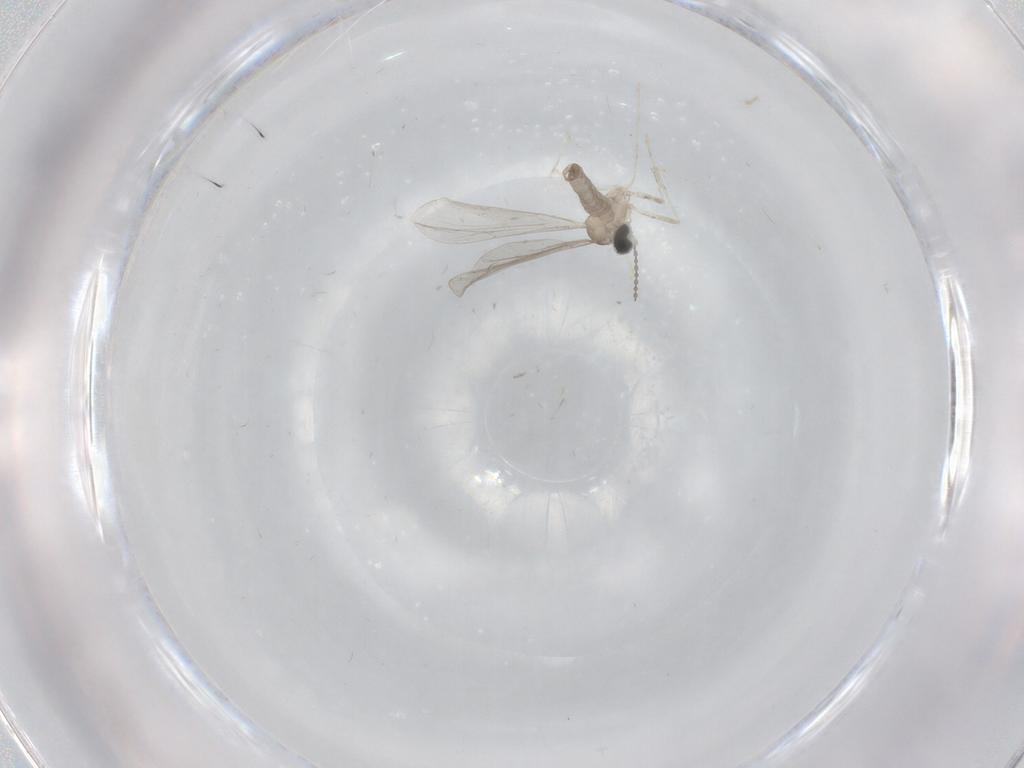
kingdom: Animalia
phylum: Arthropoda
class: Insecta
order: Diptera
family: Cecidomyiidae
